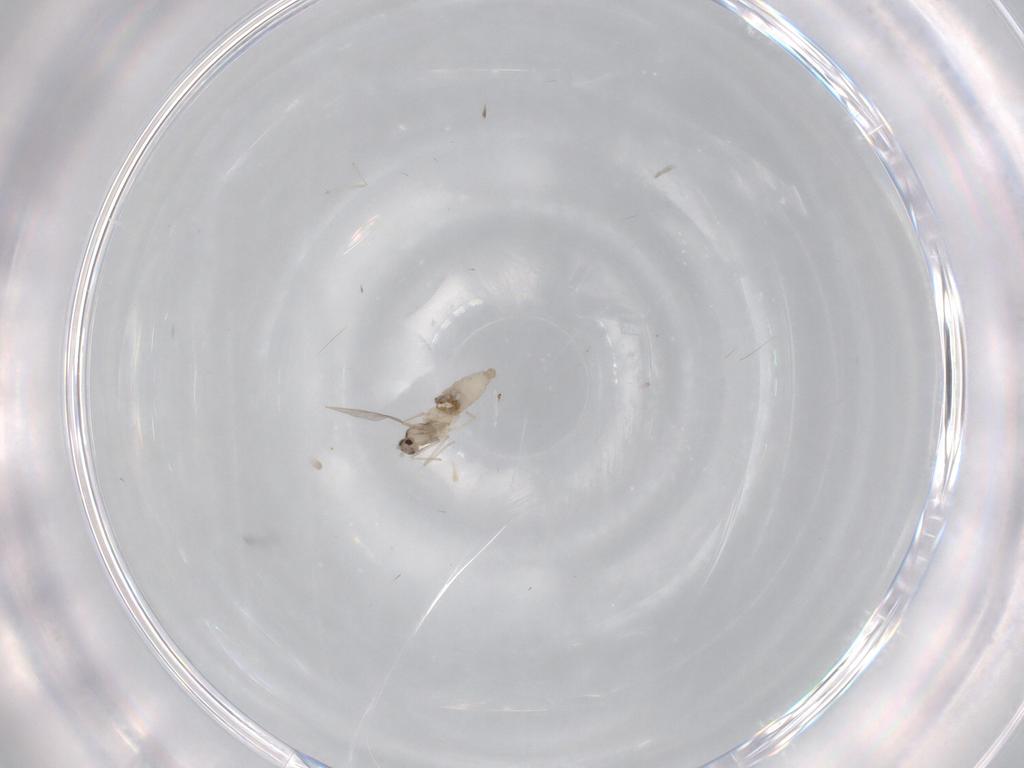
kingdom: Animalia
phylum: Arthropoda
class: Insecta
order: Diptera
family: Cecidomyiidae
